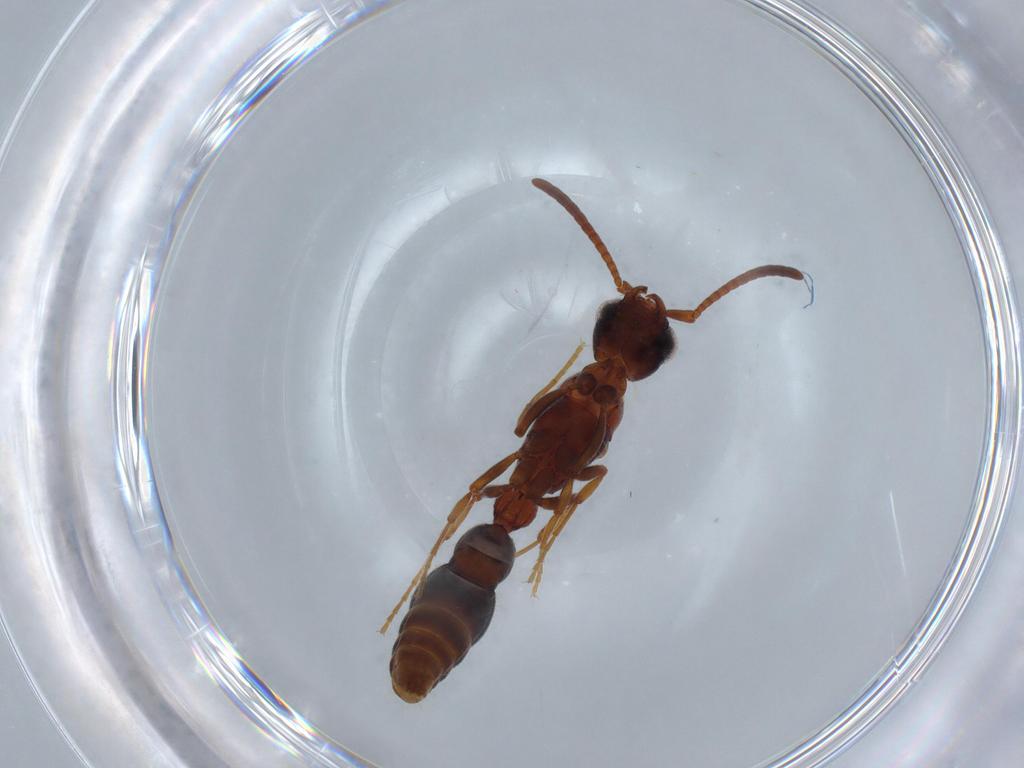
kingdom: Animalia
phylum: Arthropoda
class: Insecta
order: Hymenoptera
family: Formicidae
